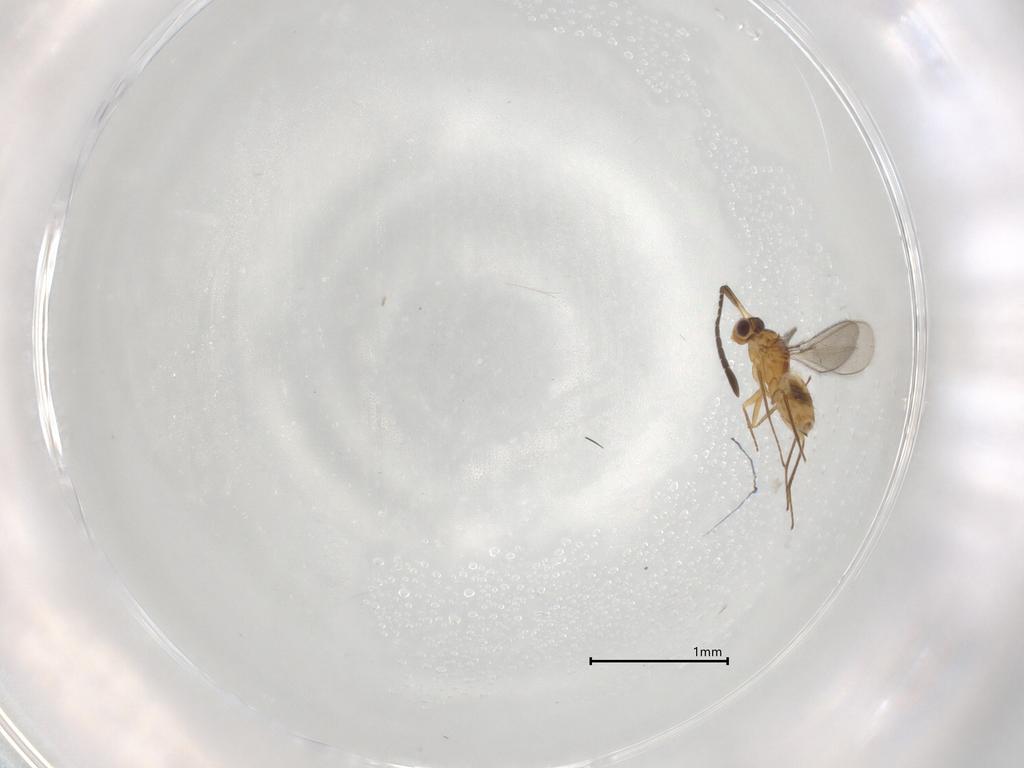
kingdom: Animalia
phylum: Arthropoda
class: Insecta
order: Hymenoptera
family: Mymaridae
